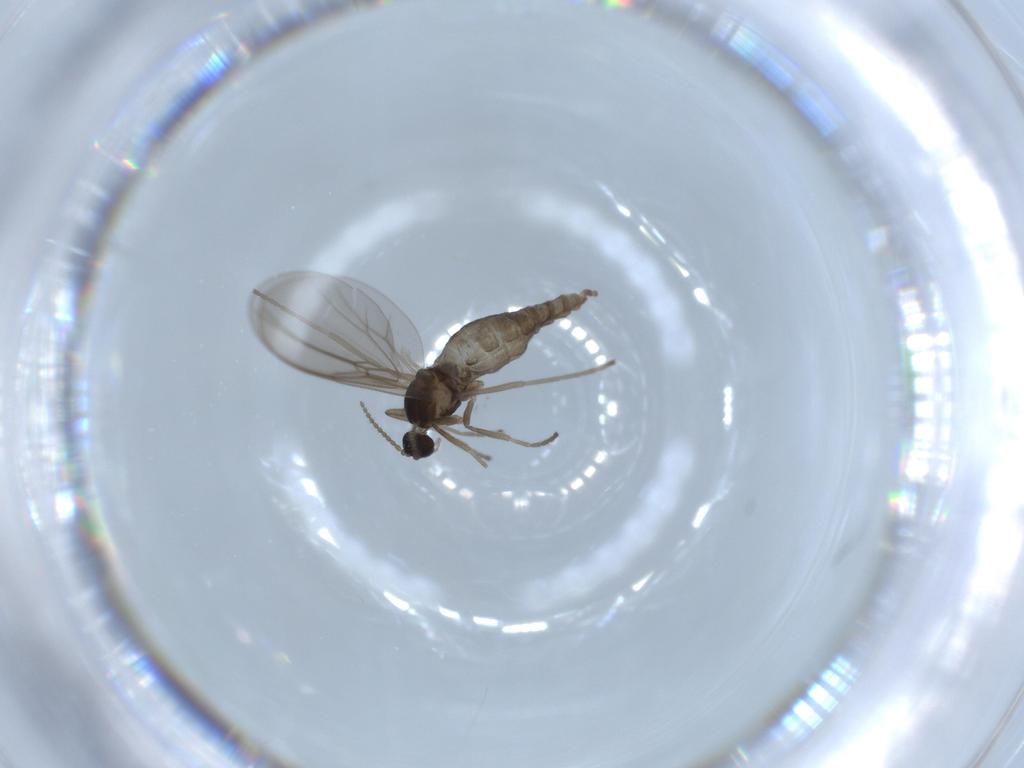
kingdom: Animalia
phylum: Arthropoda
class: Insecta
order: Diptera
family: Cecidomyiidae
